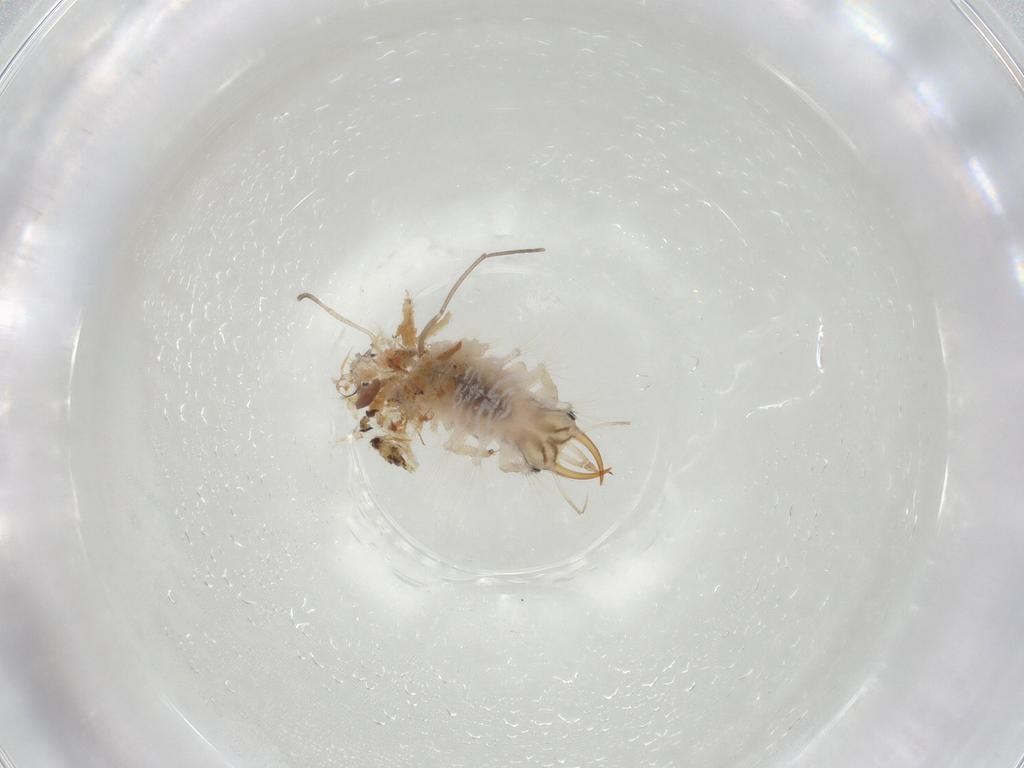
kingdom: Animalia
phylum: Arthropoda
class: Insecta
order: Neuroptera
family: Chrysopidae
